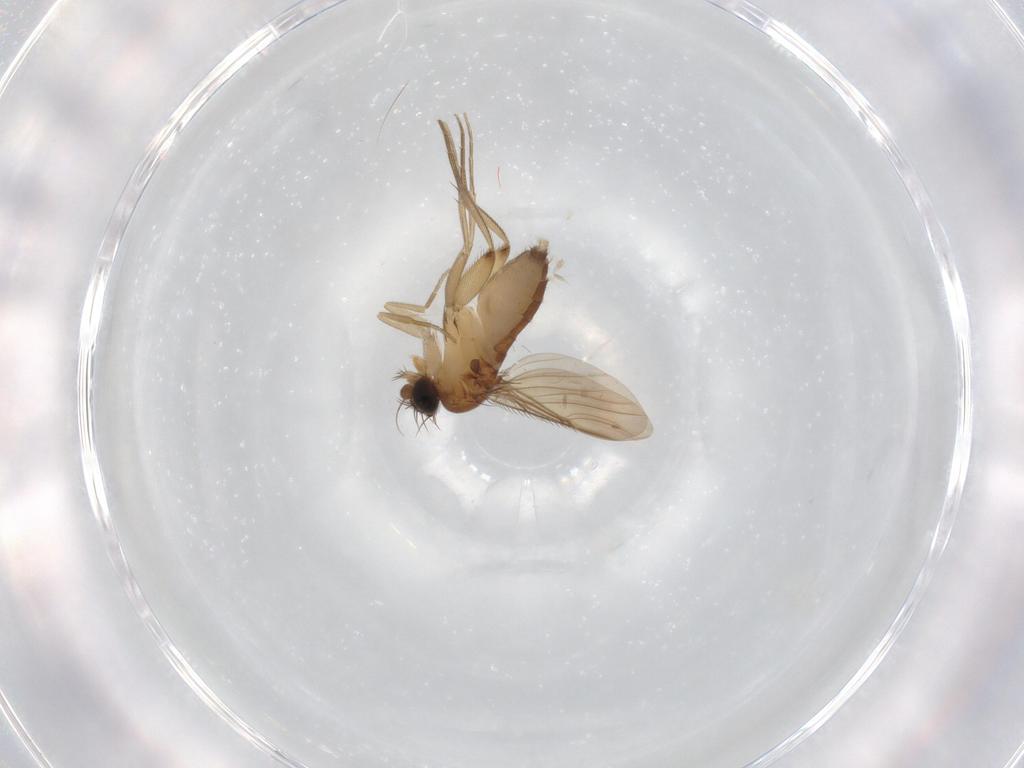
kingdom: Animalia
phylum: Arthropoda
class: Insecta
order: Diptera
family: Phoridae
